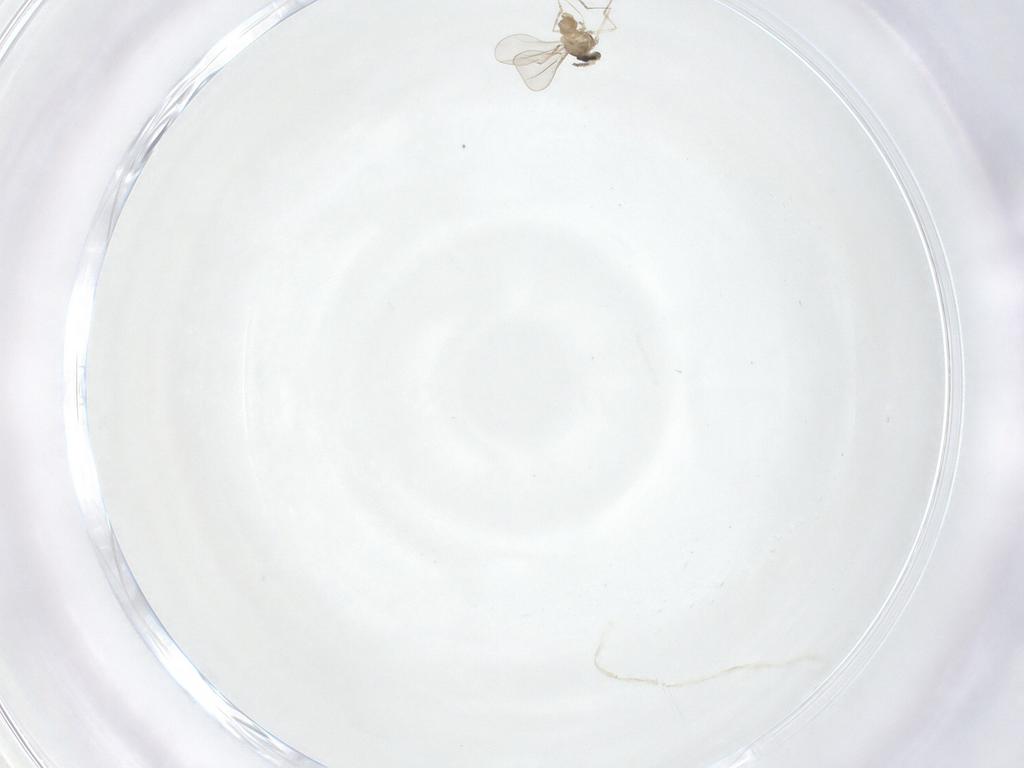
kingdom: Animalia
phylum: Arthropoda
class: Insecta
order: Diptera
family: Cecidomyiidae
